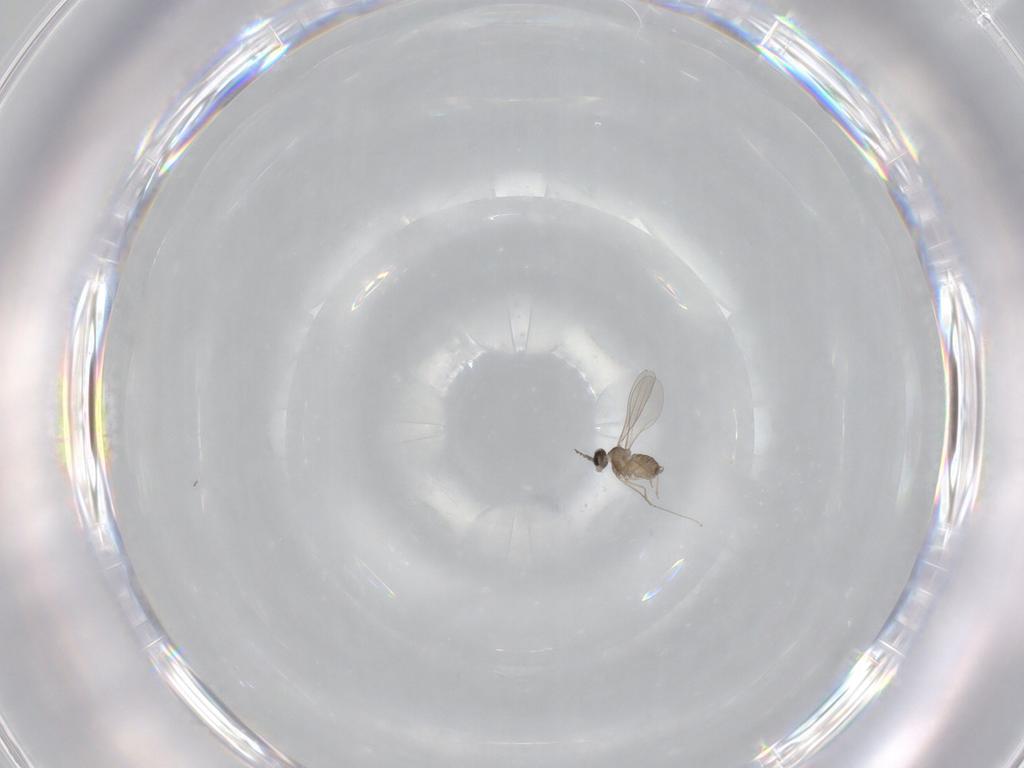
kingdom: Animalia
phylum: Arthropoda
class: Insecta
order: Diptera
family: Cecidomyiidae
